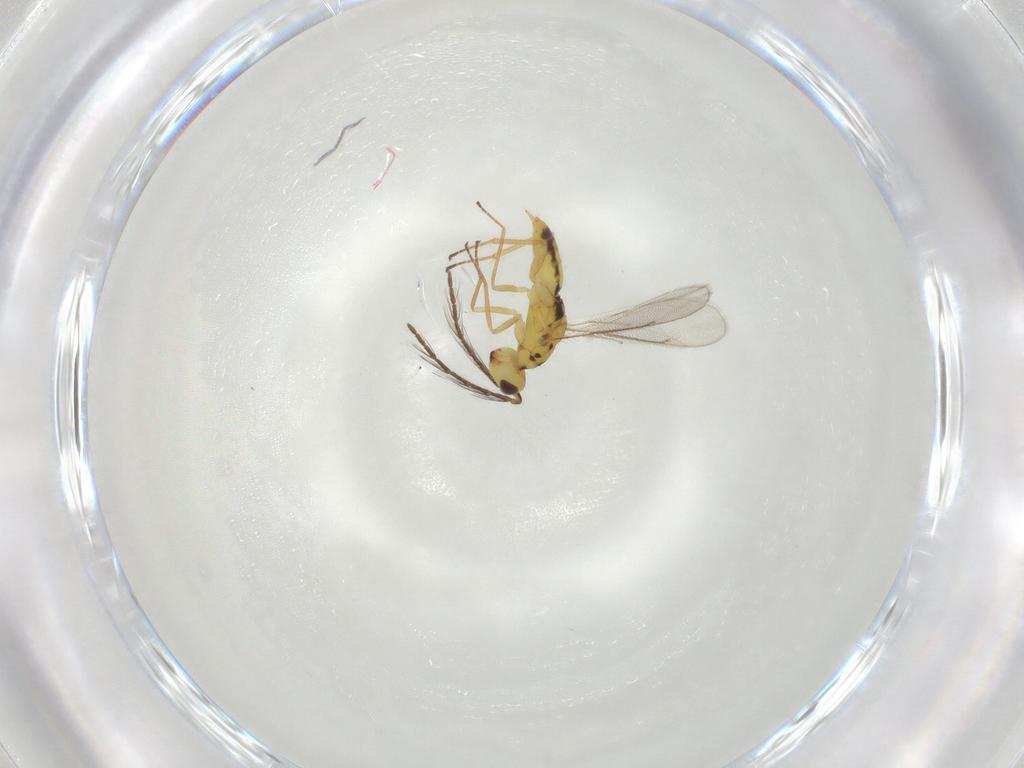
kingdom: Animalia
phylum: Arthropoda
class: Insecta
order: Hymenoptera
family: Eulophidae
